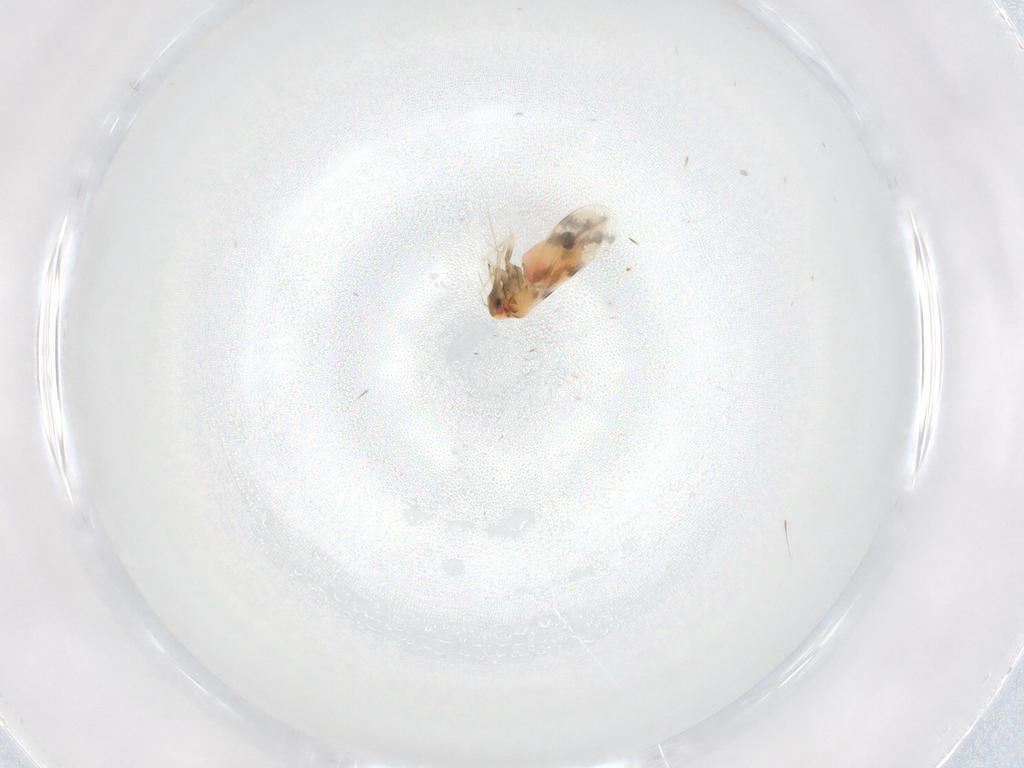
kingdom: Animalia
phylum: Arthropoda
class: Insecta
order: Hemiptera
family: Aleyrodidae
